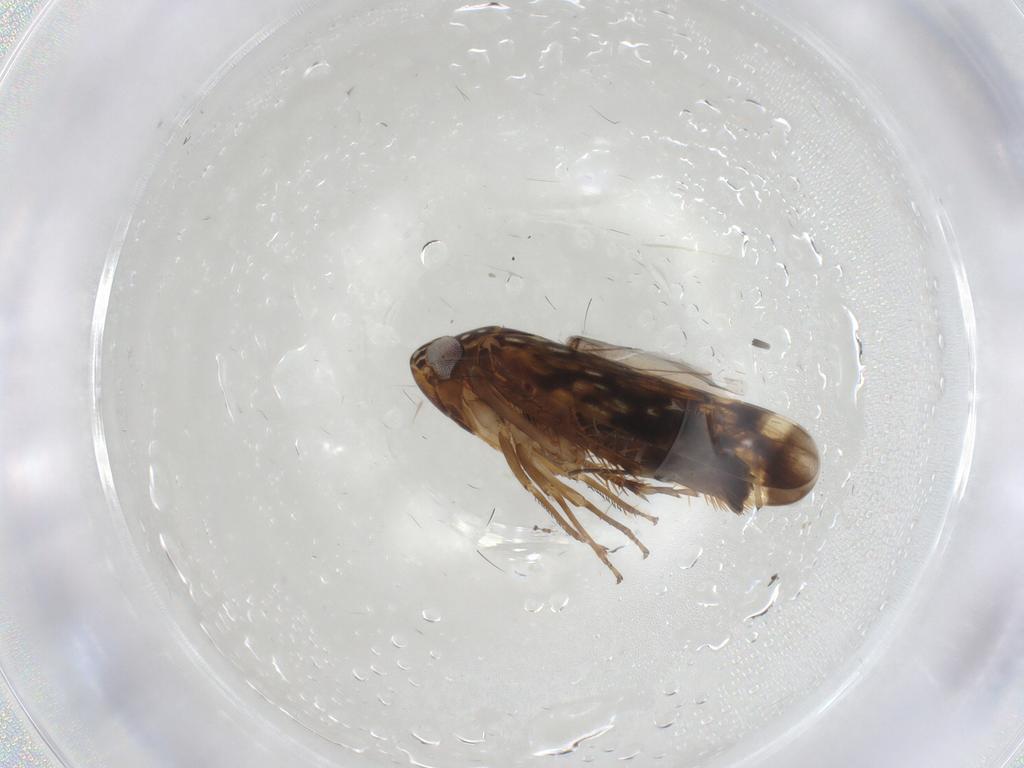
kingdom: Animalia
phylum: Arthropoda
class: Insecta
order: Hemiptera
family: Cicadellidae
